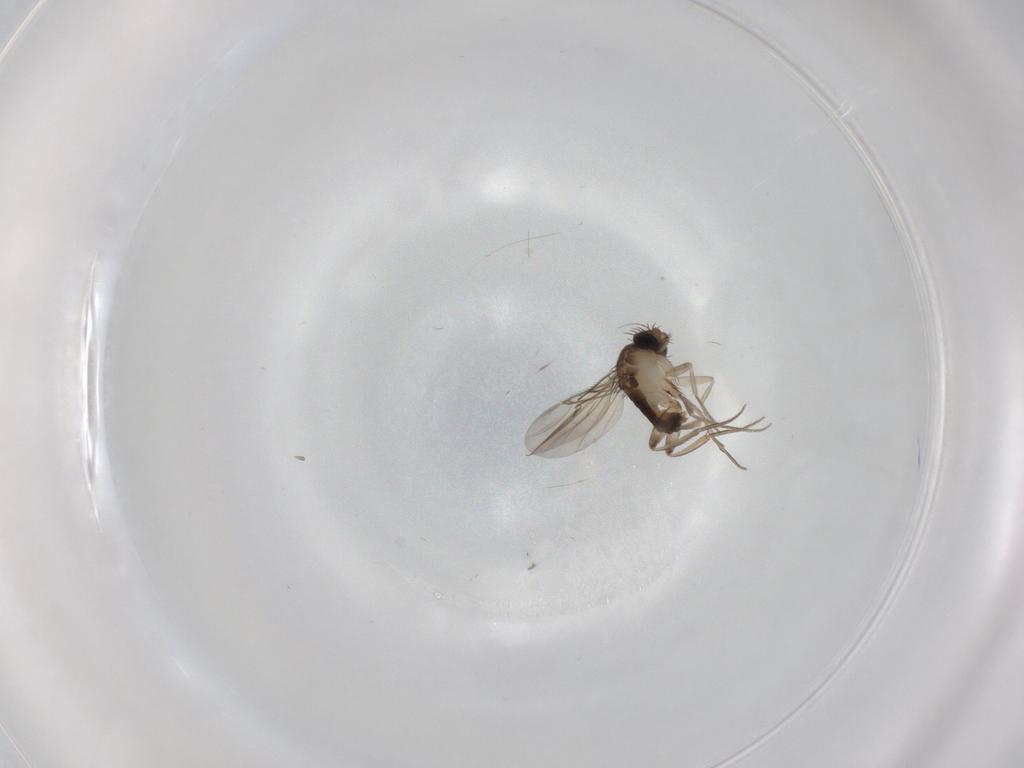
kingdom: Animalia
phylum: Arthropoda
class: Insecta
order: Diptera
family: Phoridae
